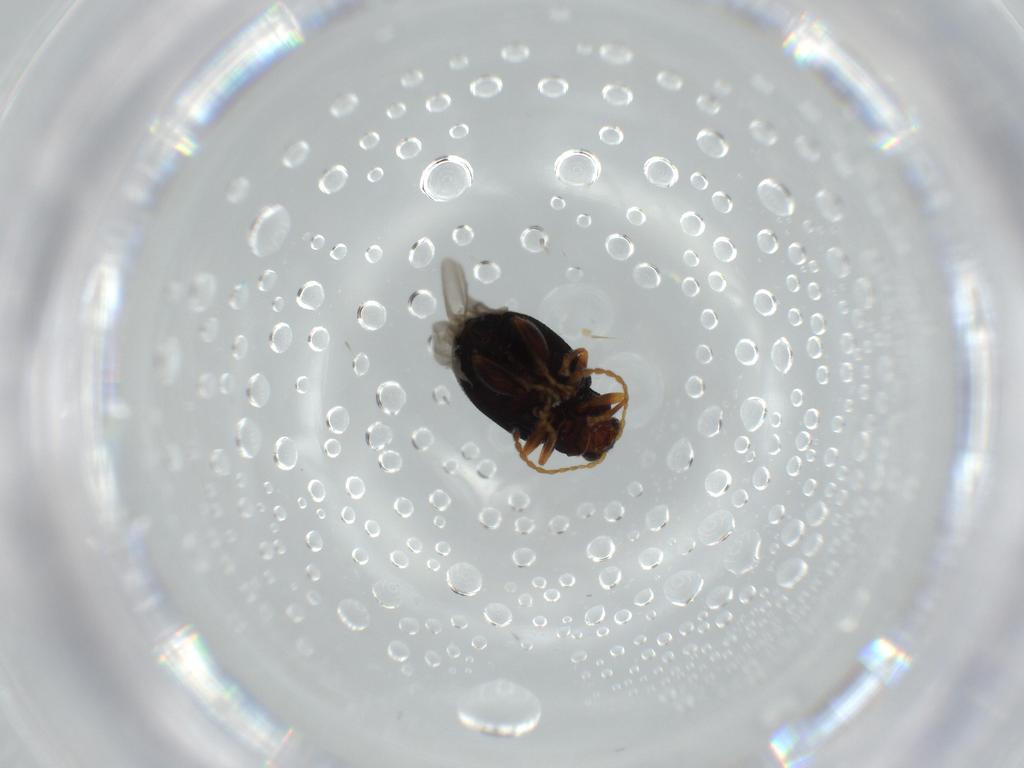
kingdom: Animalia
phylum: Arthropoda
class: Insecta
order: Coleoptera
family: Chrysomelidae
